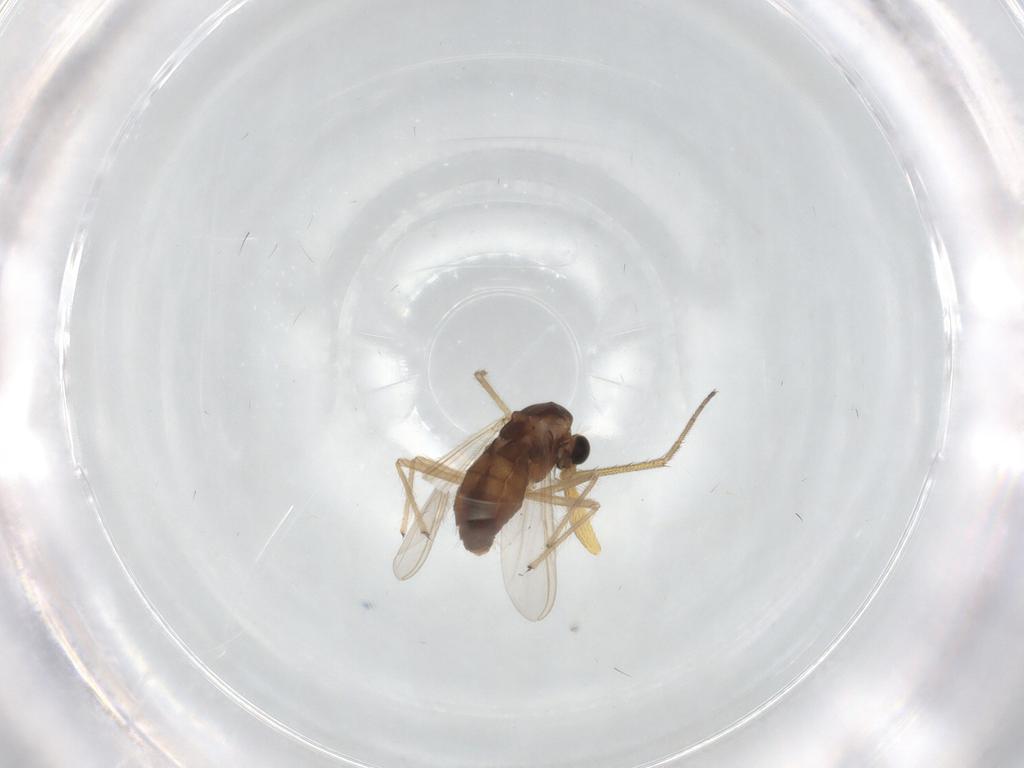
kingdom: Animalia
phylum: Arthropoda
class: Insecta
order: Diptera
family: Chironomidae
